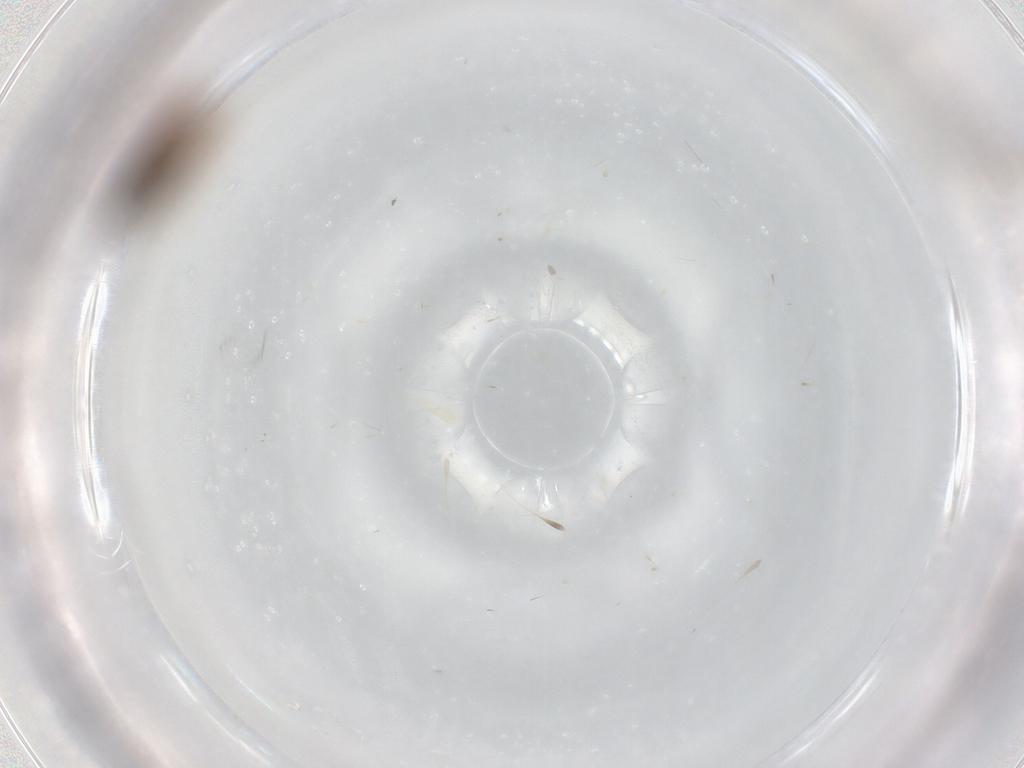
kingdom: Animalia
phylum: Arthropoda
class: Insecta
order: Hemiptera
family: Aphididae
